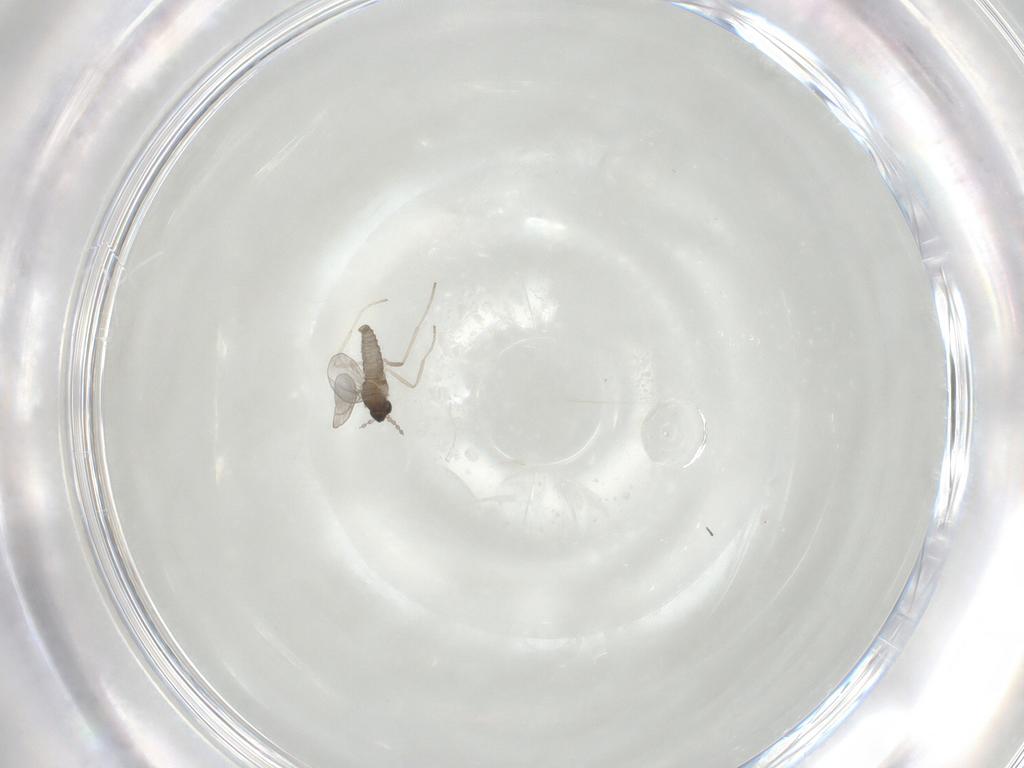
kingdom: Animalia
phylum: Arthropoda
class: Insecta
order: Diptera
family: Cecidomyiidae
